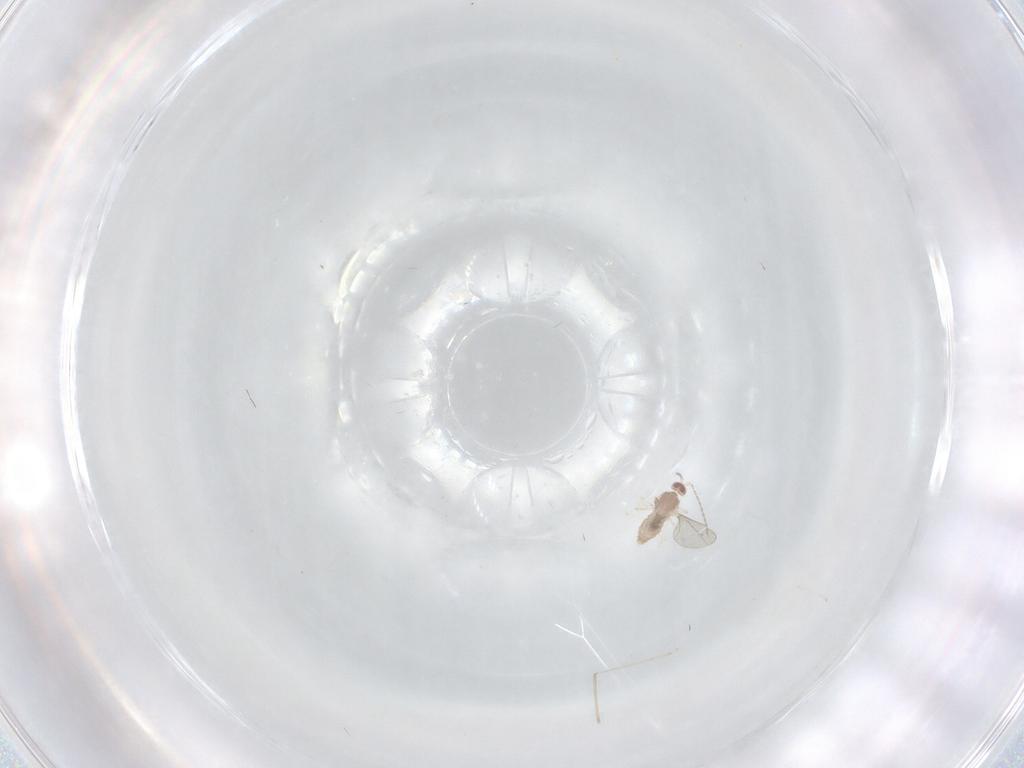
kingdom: Animalia
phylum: Arthropoda
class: Insecta
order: Diptera
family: Cecidomyiidae
